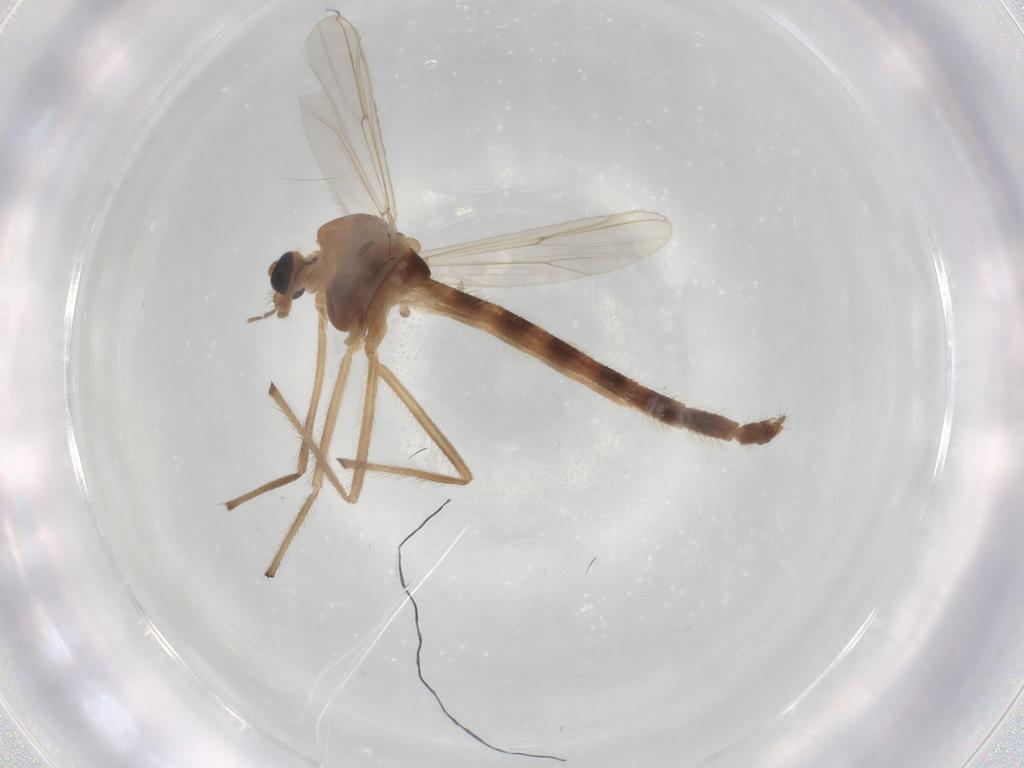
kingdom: Animalia
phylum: Arthropoda
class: Insecta
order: Diptera
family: Chironomidae
